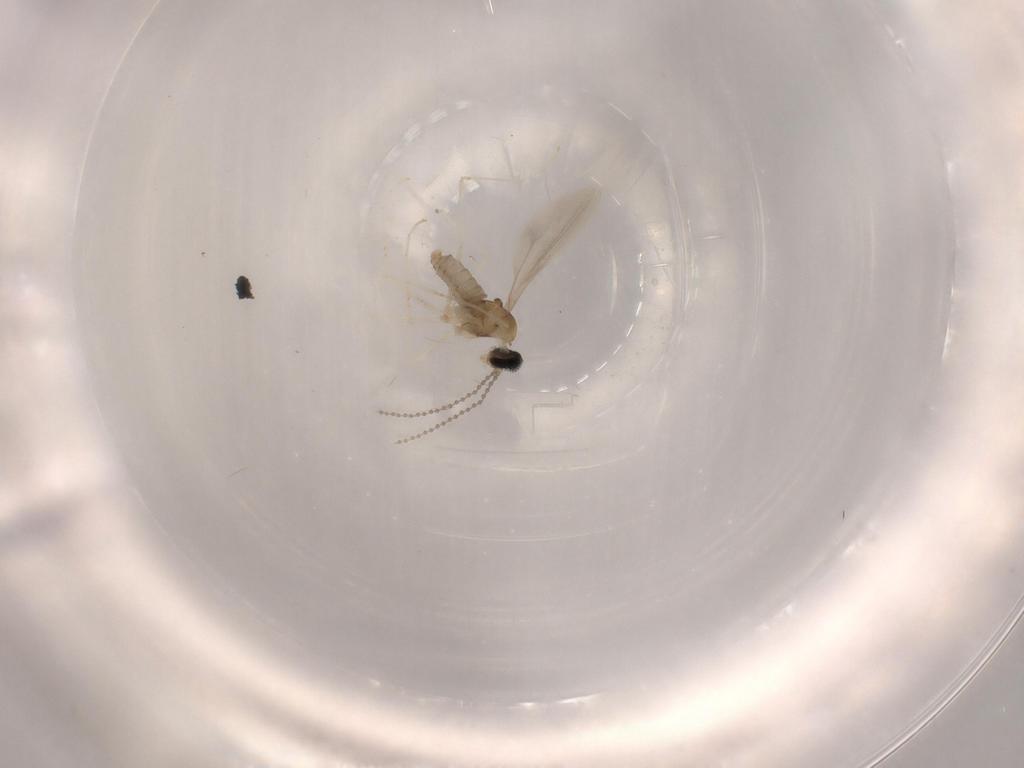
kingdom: Animalia
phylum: Arthropoda
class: Insecta
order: Diptera
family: Cecidomyiidae
